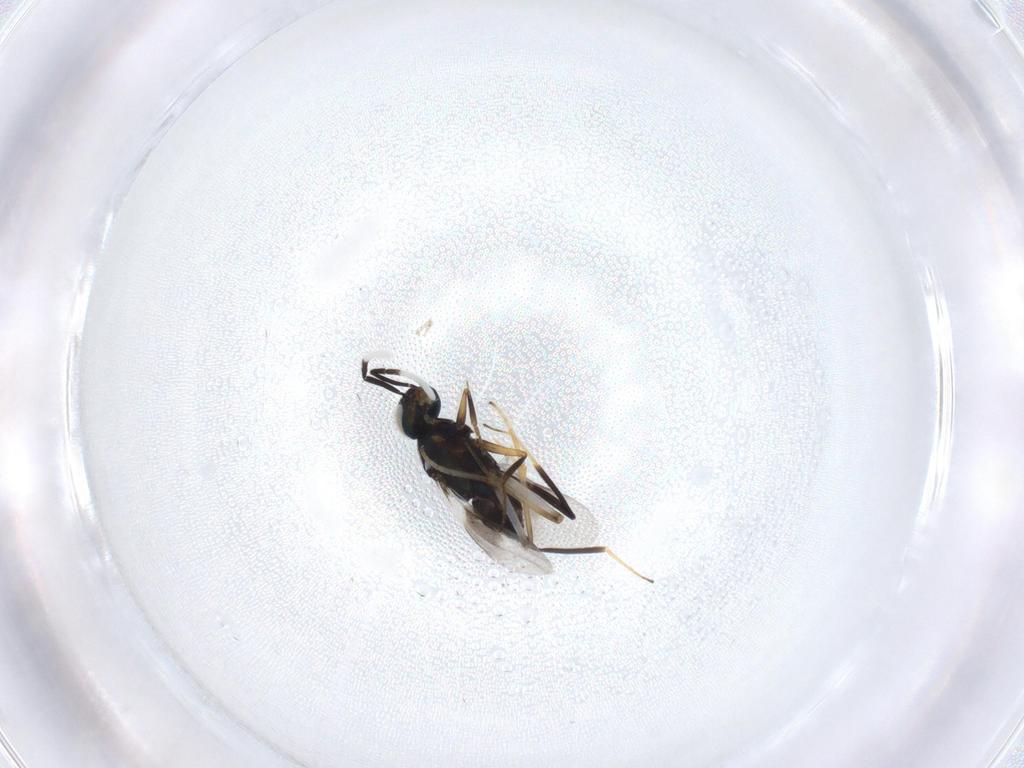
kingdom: Animalia
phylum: Arthropoda
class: Insecta
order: Hymenoptera
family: Encyrtidae
